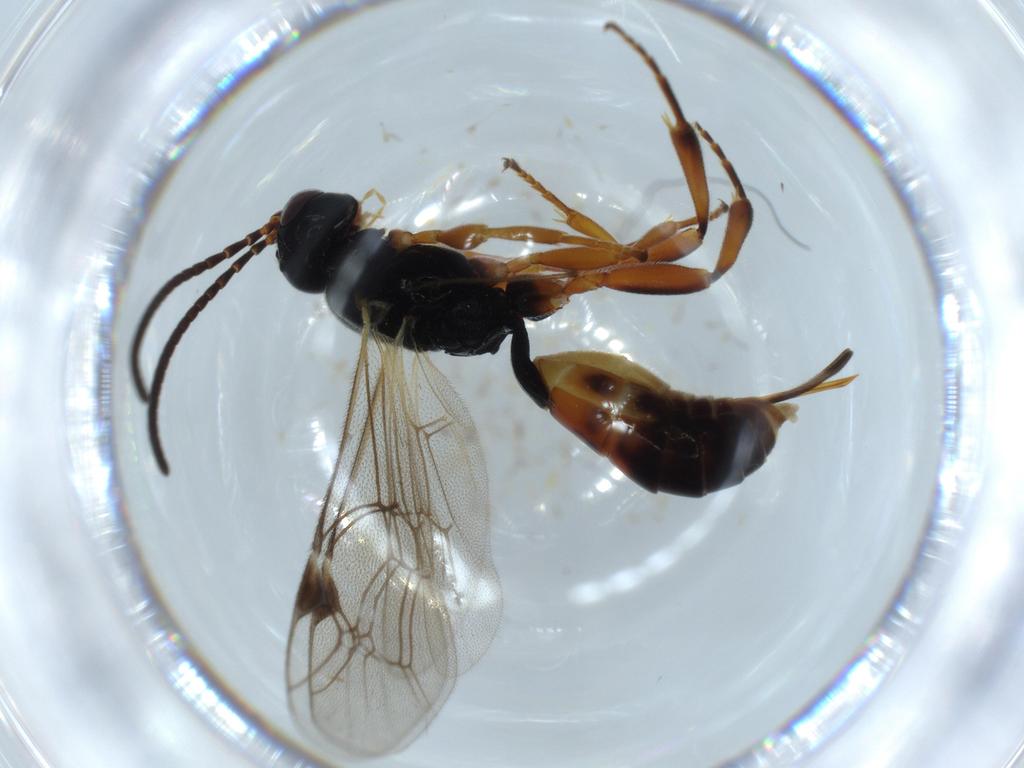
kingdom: Animalia
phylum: Arthropoda
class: Insecta
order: Hymenoptera
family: Ichneumonidae
